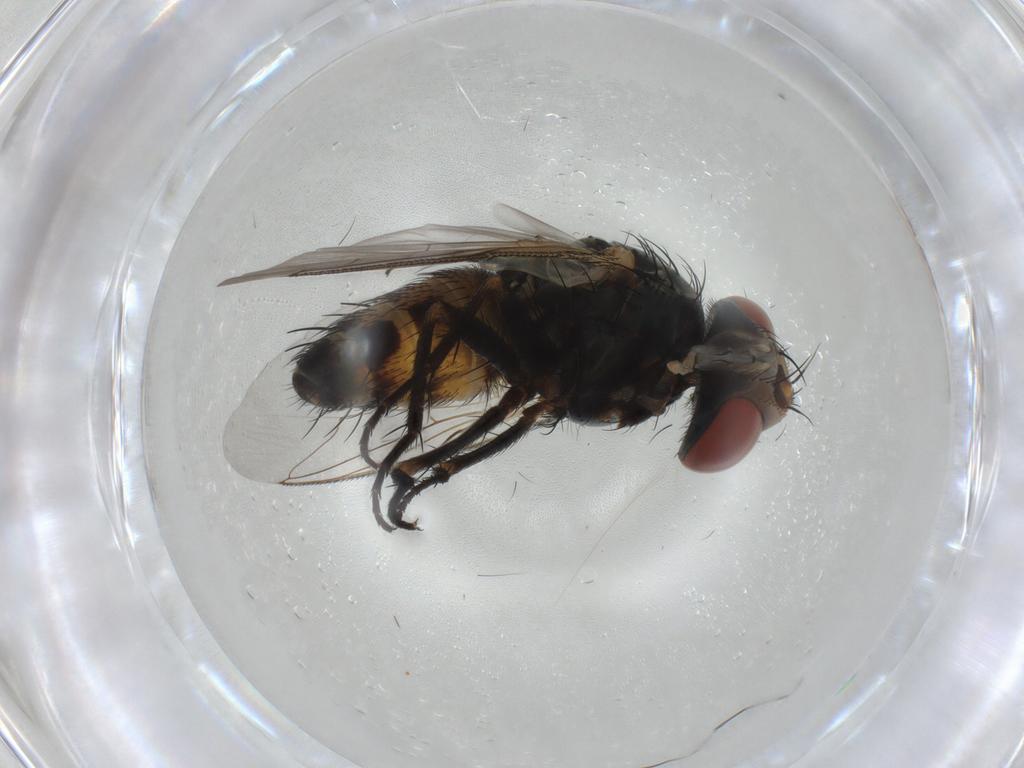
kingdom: Animalia
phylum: Arthropoda
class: Insecta
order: Diptera
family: Sarcophagidae
